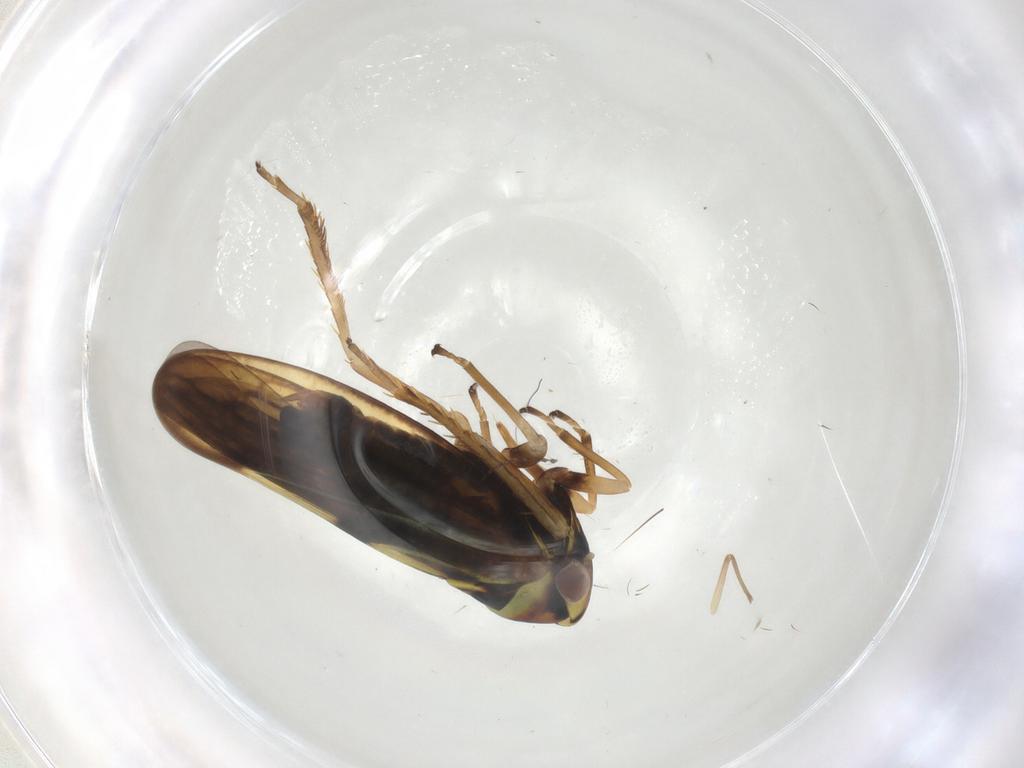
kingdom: Animalia
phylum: Arthropoda
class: Insecta
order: Hemiptera
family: Cicadellidae
